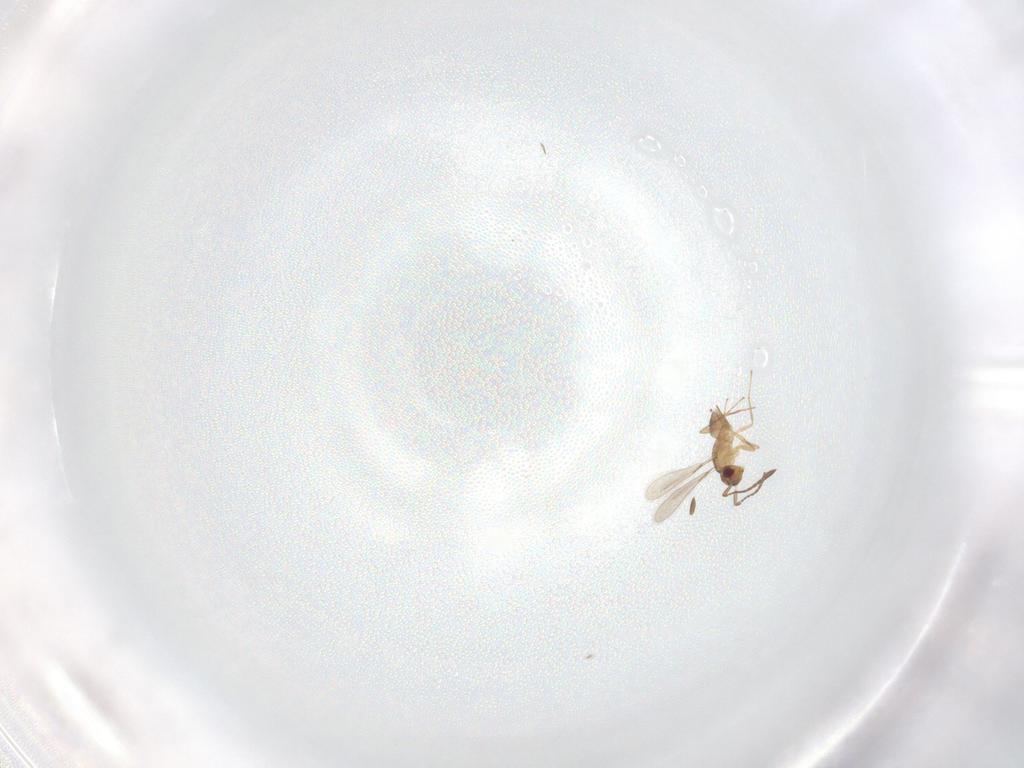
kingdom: Animalia
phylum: Arthropoda
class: Insecta
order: Hymenoptera
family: Mymaridae
